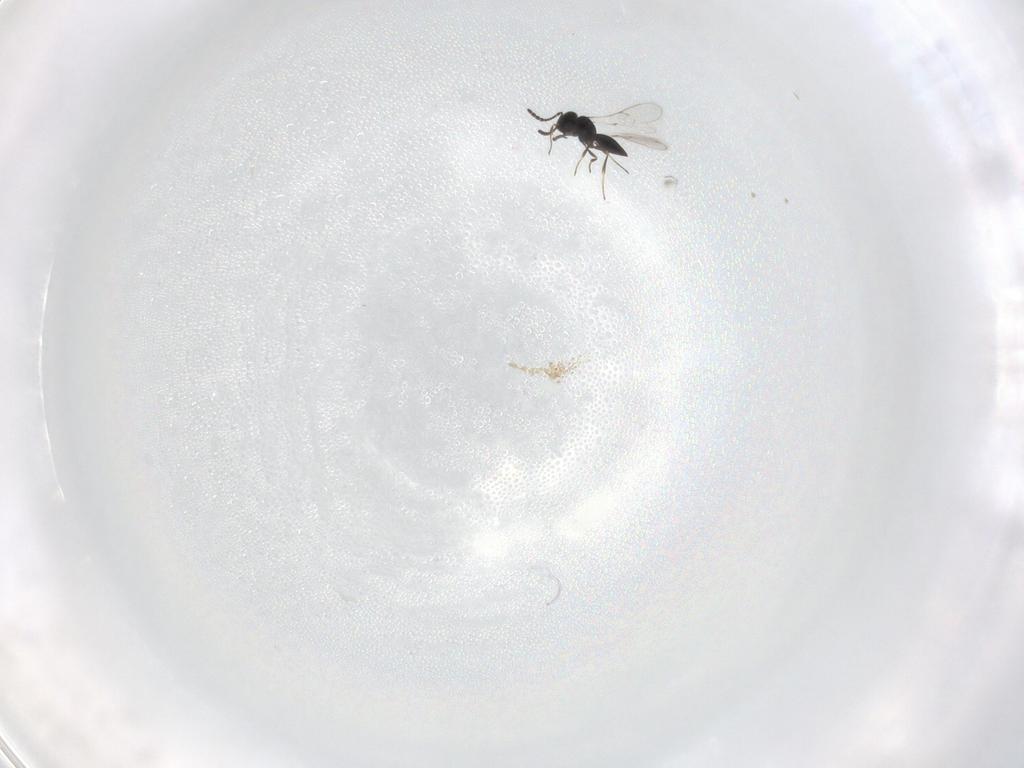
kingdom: Animalia
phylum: Arthropoda
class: Insecta
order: Hymenoptera
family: Scelionidae
